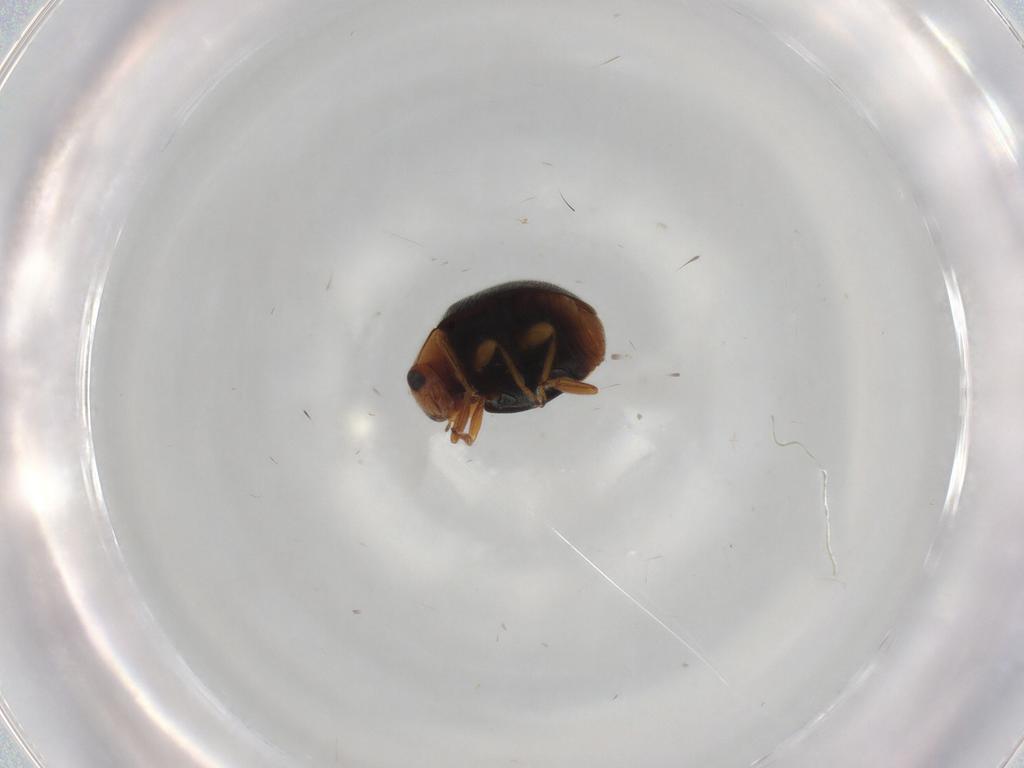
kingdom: Animalia
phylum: Arthropoda
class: Insecta
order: Coleoptera
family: Coccinellidae
